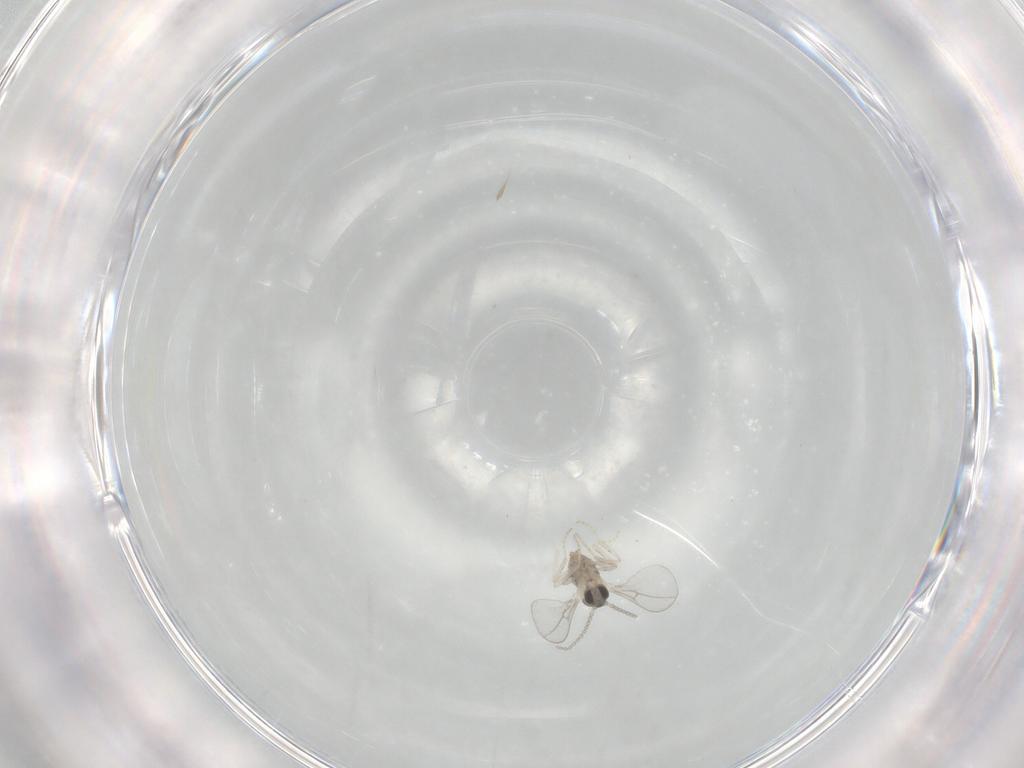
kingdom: Animalia
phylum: Arthropoda
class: Insecta
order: Diptera
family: Cecidomyiidae
